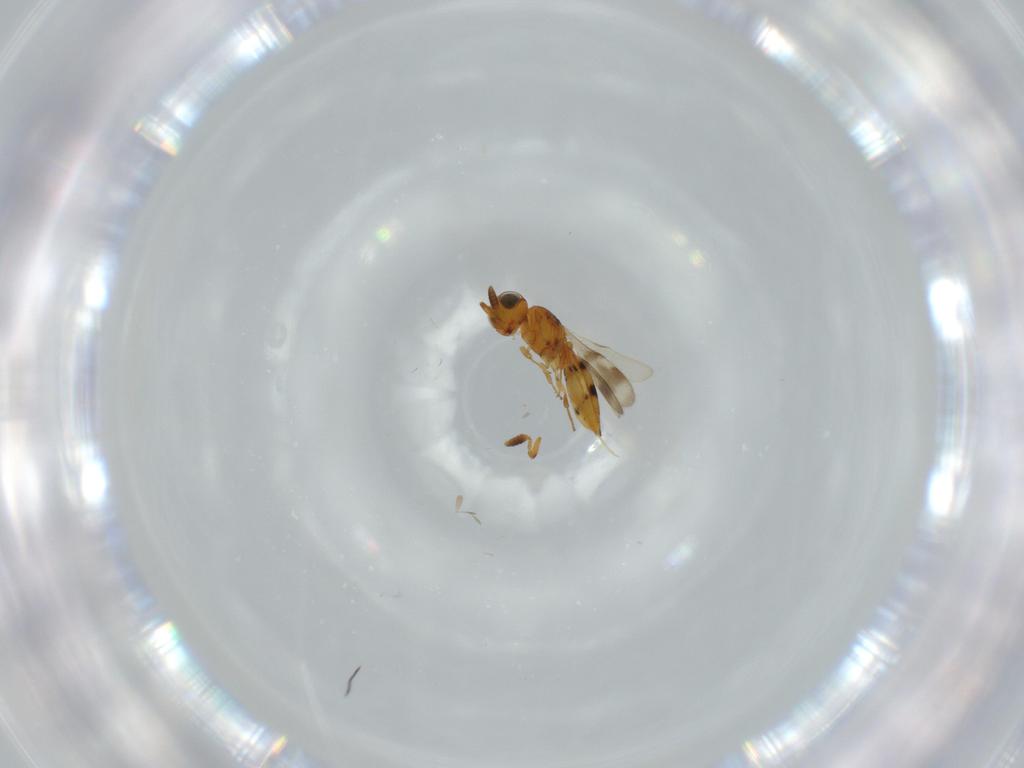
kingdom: Animalia
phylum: Arthropoda
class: Insecta
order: Hymenoptera
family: Scelionidae
